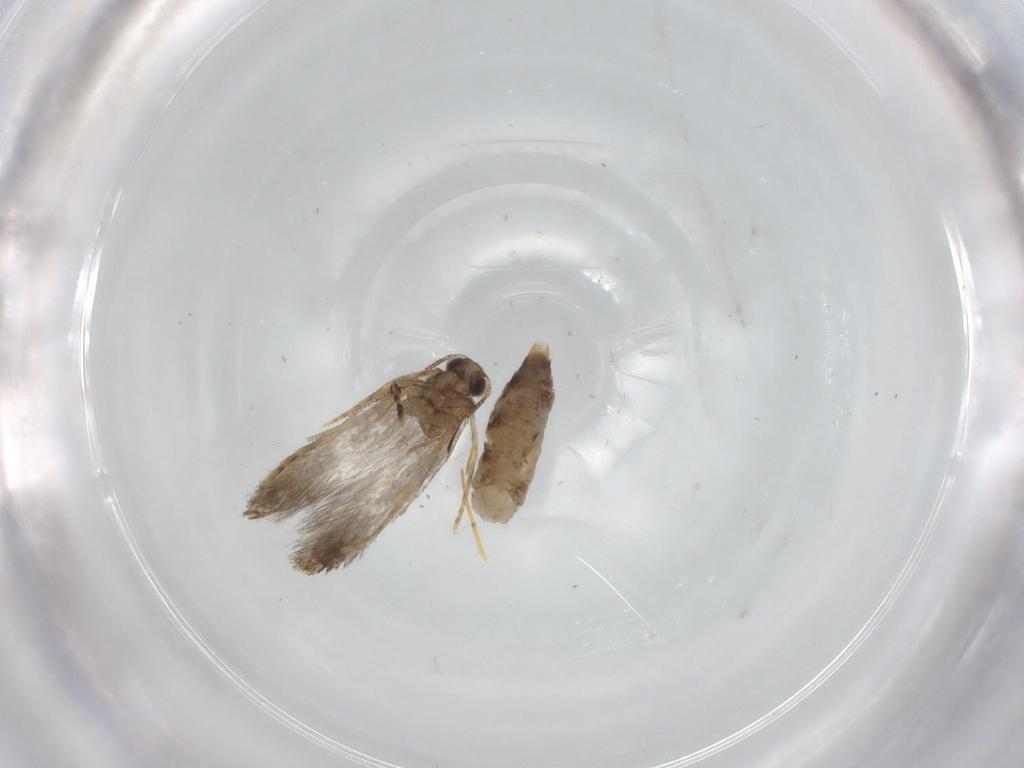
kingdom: Animalia
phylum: Arthropoda
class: Insecta
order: Lepidoptera
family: Tineidae
